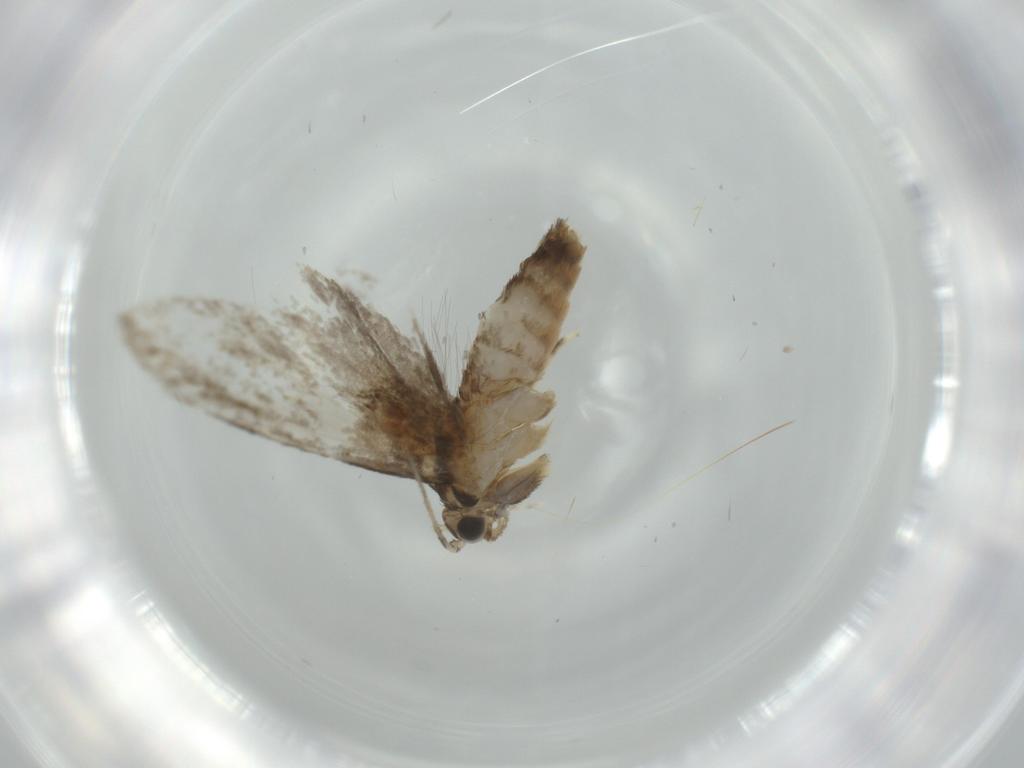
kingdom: Animalia
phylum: Arthropoda
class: Insecta
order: Lepidoptera
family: Tineidae
